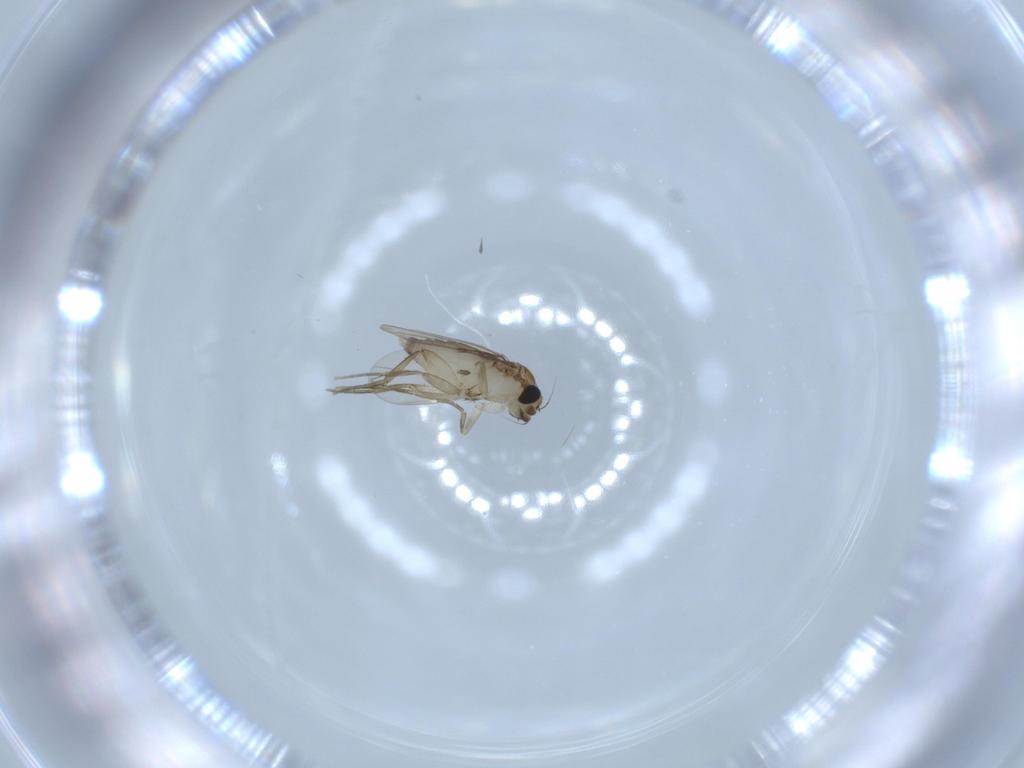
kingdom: Animalia
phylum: Arthropoda
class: Insecta
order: Diptera
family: Phoridae
